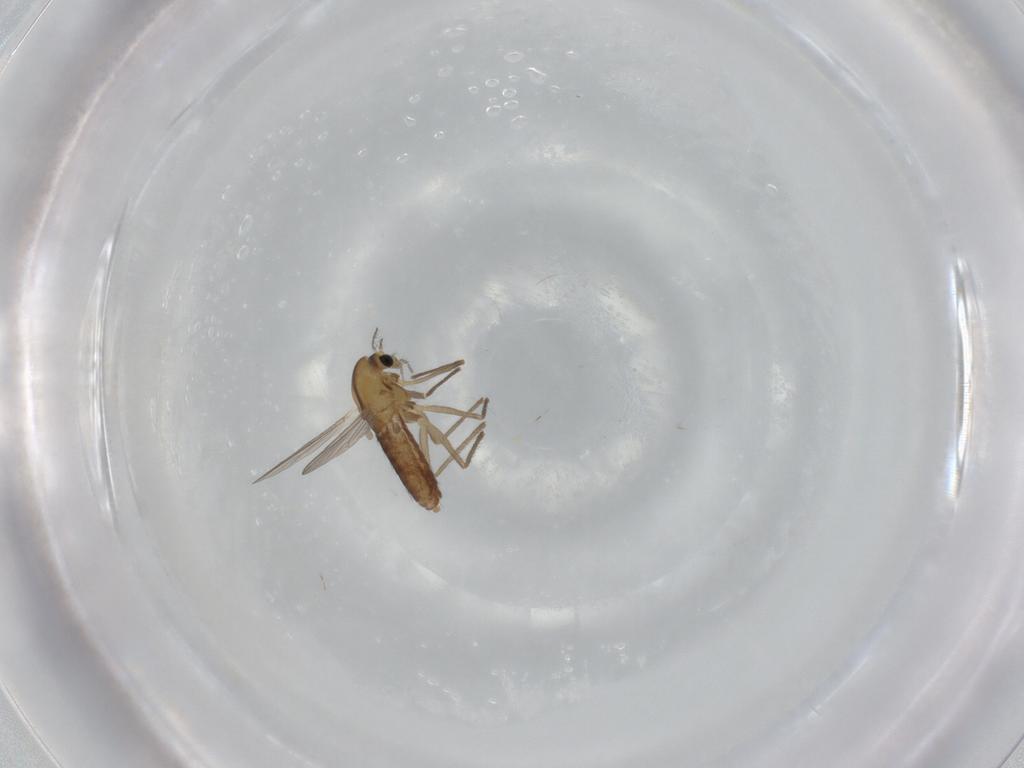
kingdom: Animalia
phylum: Arthropoda
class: Insecta
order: Diptera
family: Chironomidae
